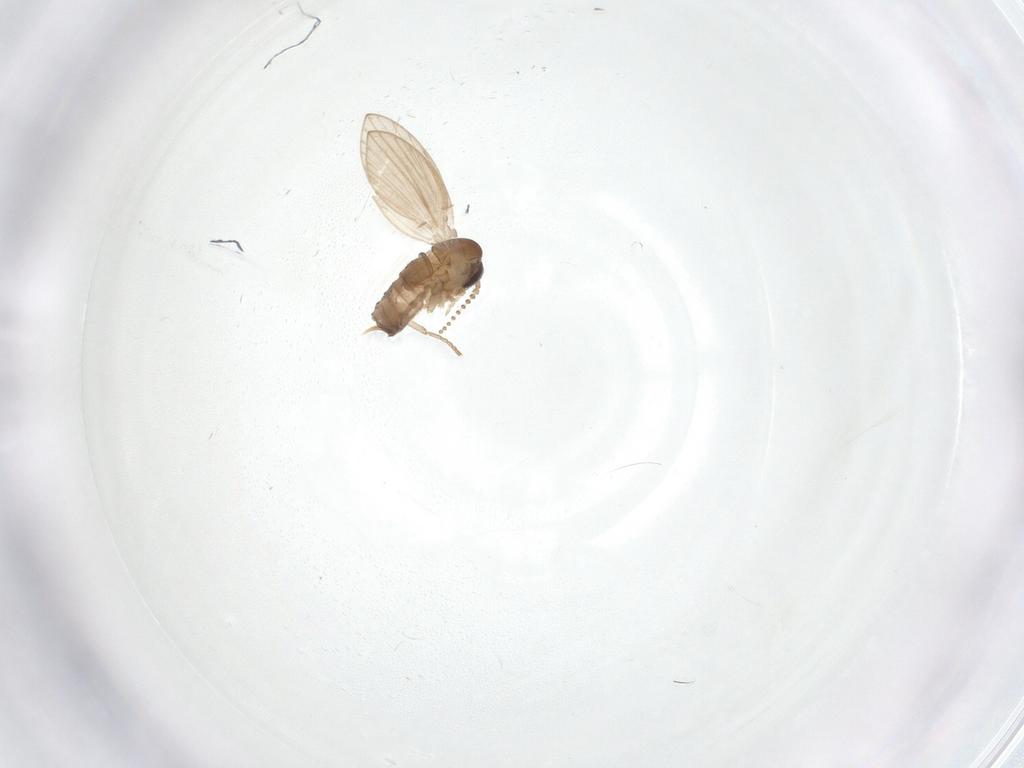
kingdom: Animalia
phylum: Arthropoda
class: Insecta
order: Diptera
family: Psychodidae
